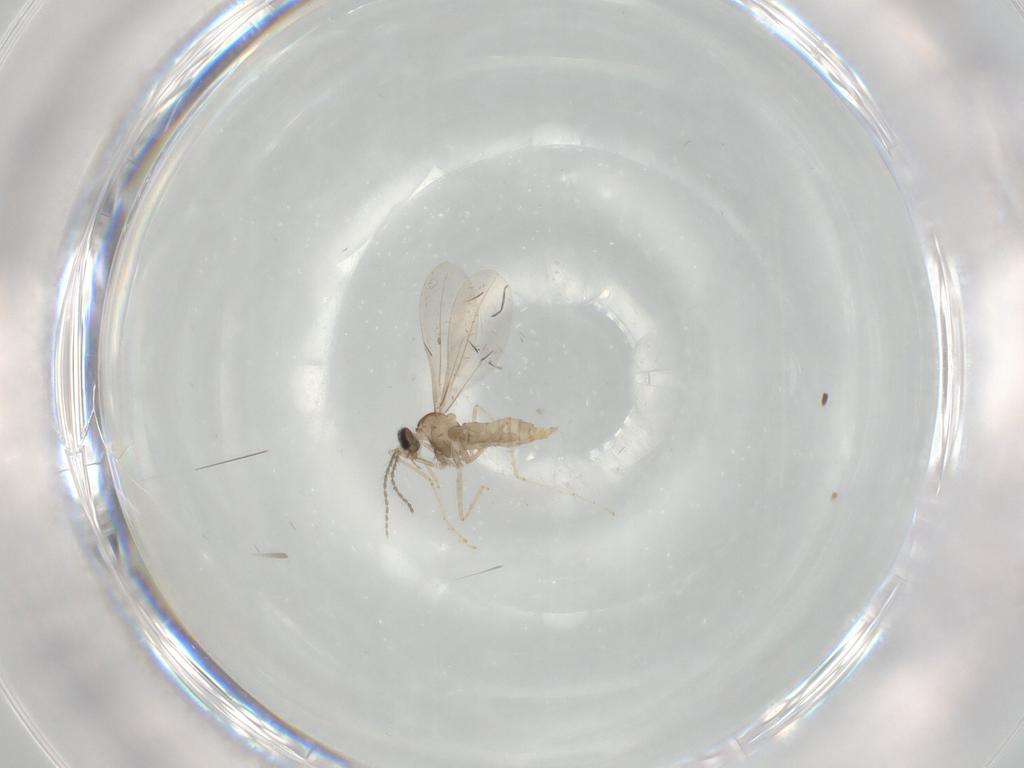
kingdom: Animalia
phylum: Arthropoda
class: Insecta
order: Diptera
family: Cecidomyiidae
